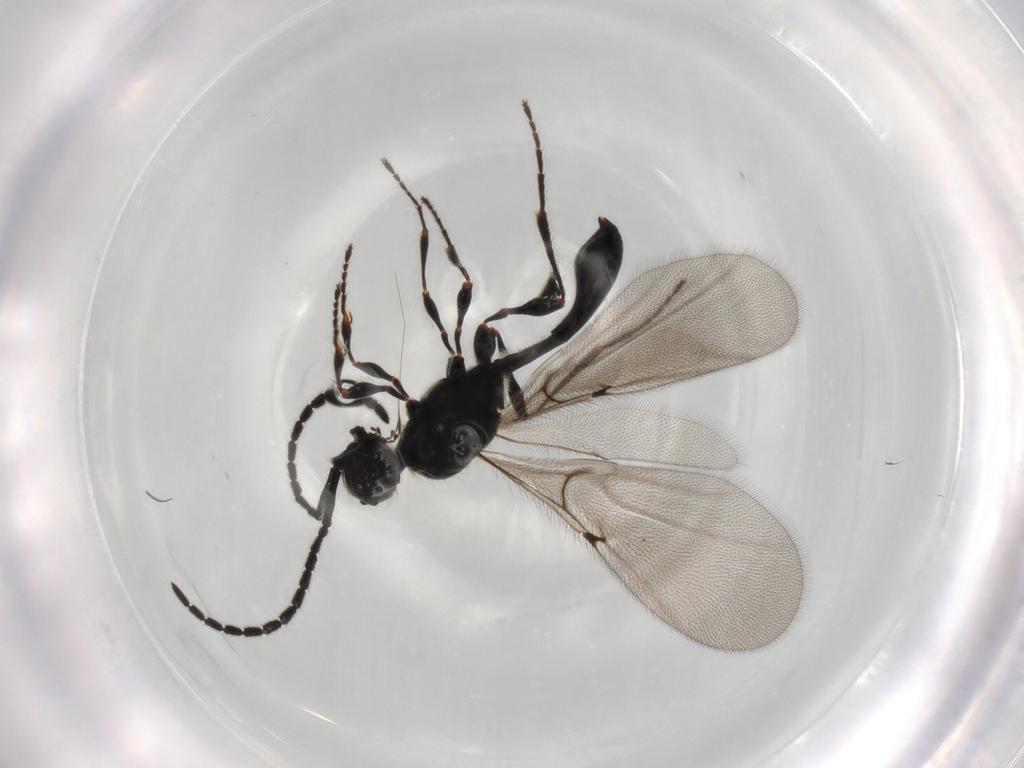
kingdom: Animalia
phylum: Arthropoda
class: Insecta
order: Hymenoptera
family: Diapriidae
